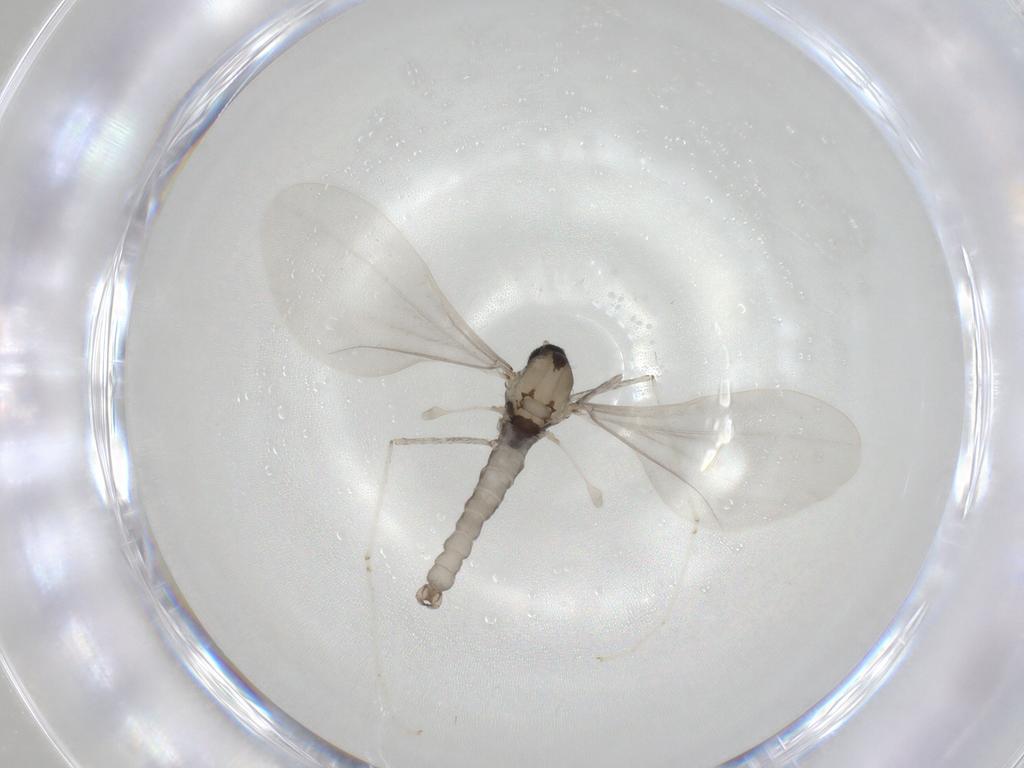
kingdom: Animalia
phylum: Arthropoda
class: Insecta
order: Diptera
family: Cecidomyiidae
